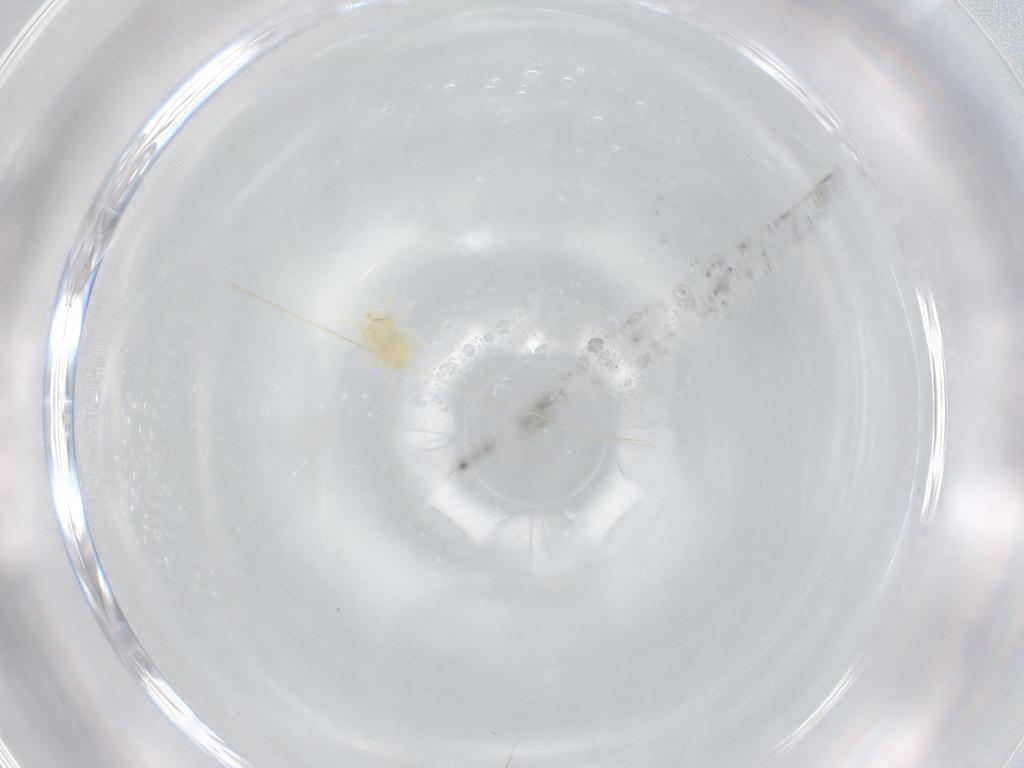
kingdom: Animalia
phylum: Arthropoda
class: Arachnida
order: Trombidiformes
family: Erythracaridae
